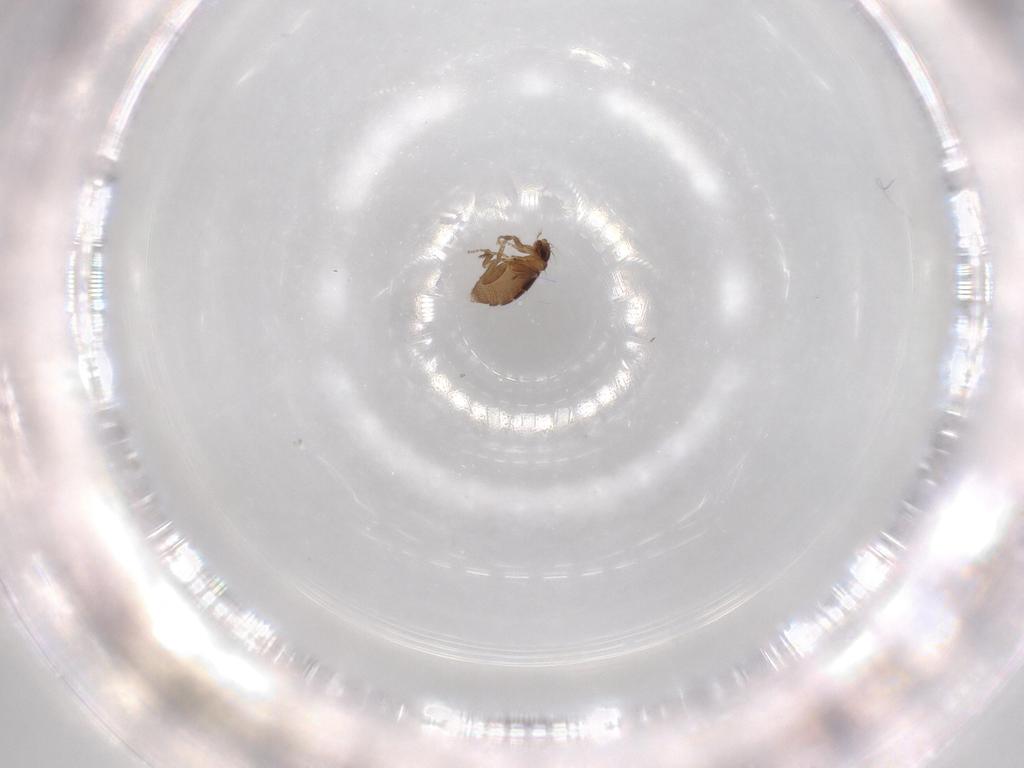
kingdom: Animalia
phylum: Arthropoda
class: Insecta
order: Diptera
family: Phoridae
